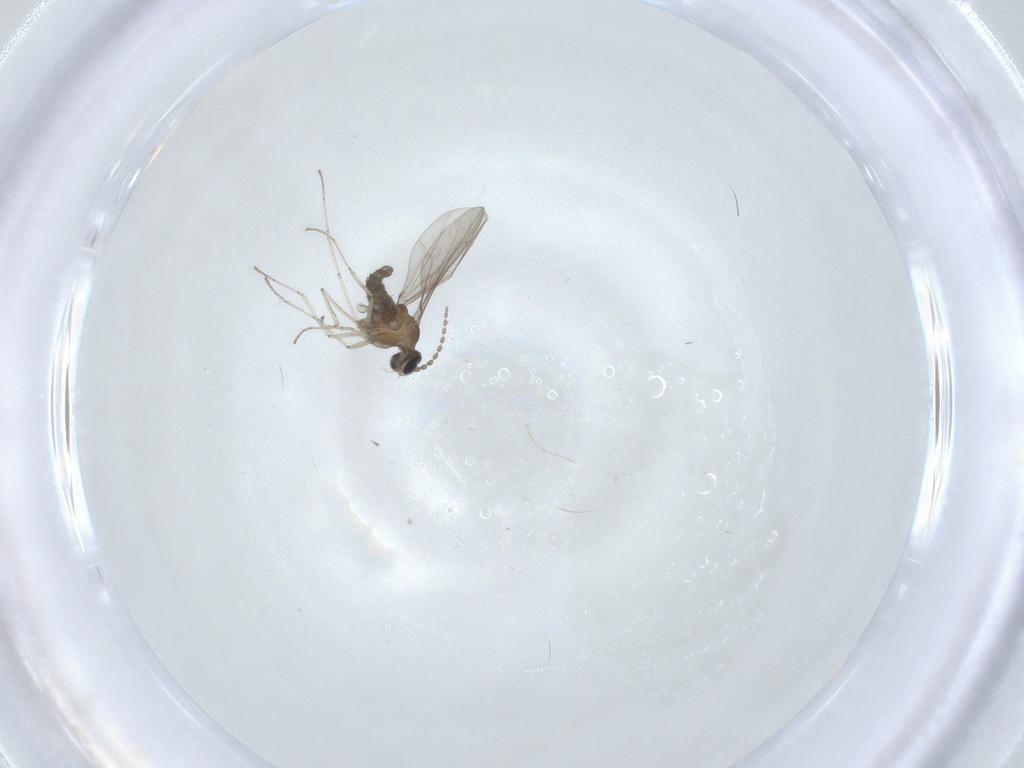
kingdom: Animalia
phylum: Arthropoda
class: Insecta
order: Diptera
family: Cecidomyiidae
